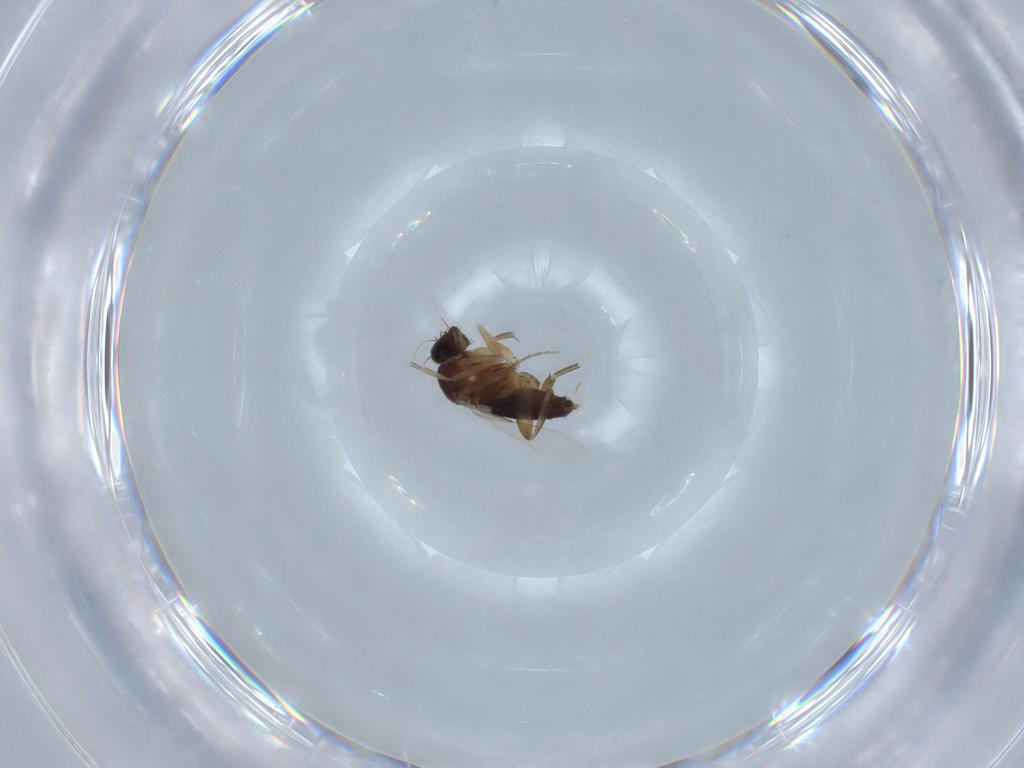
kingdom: Animalia
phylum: Arthropoda
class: Insecta
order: Diptera
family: Phoridae
